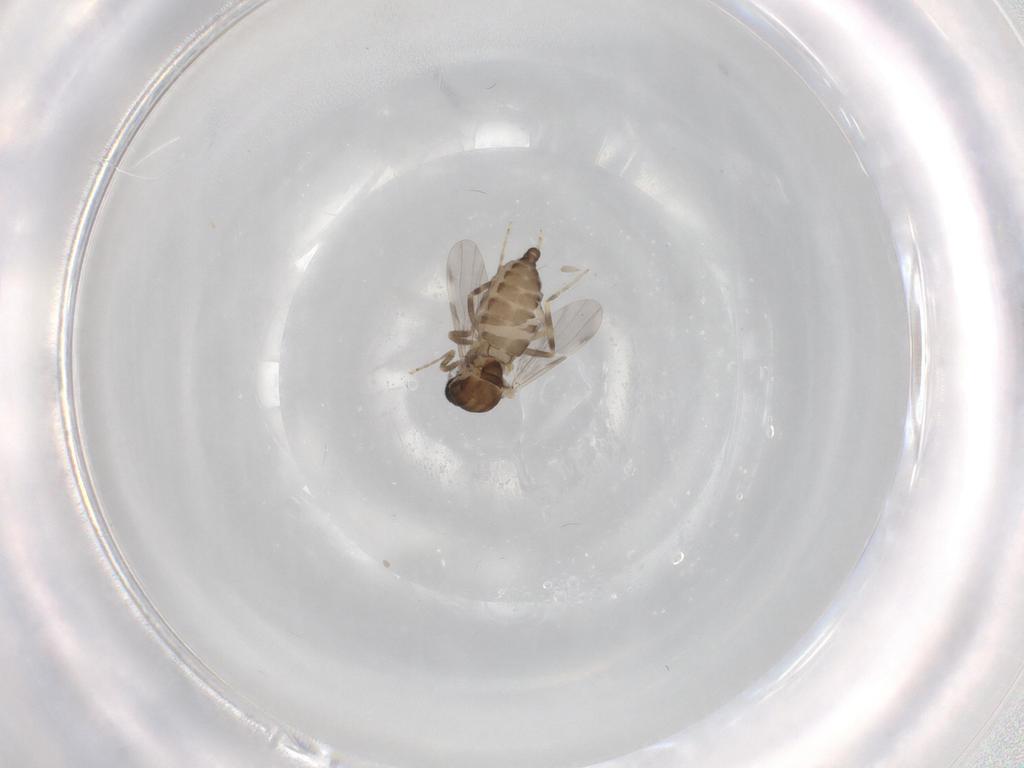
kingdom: Animalia
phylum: Arthropoda
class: Insecta
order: Diptera
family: Ceratopogonidae
